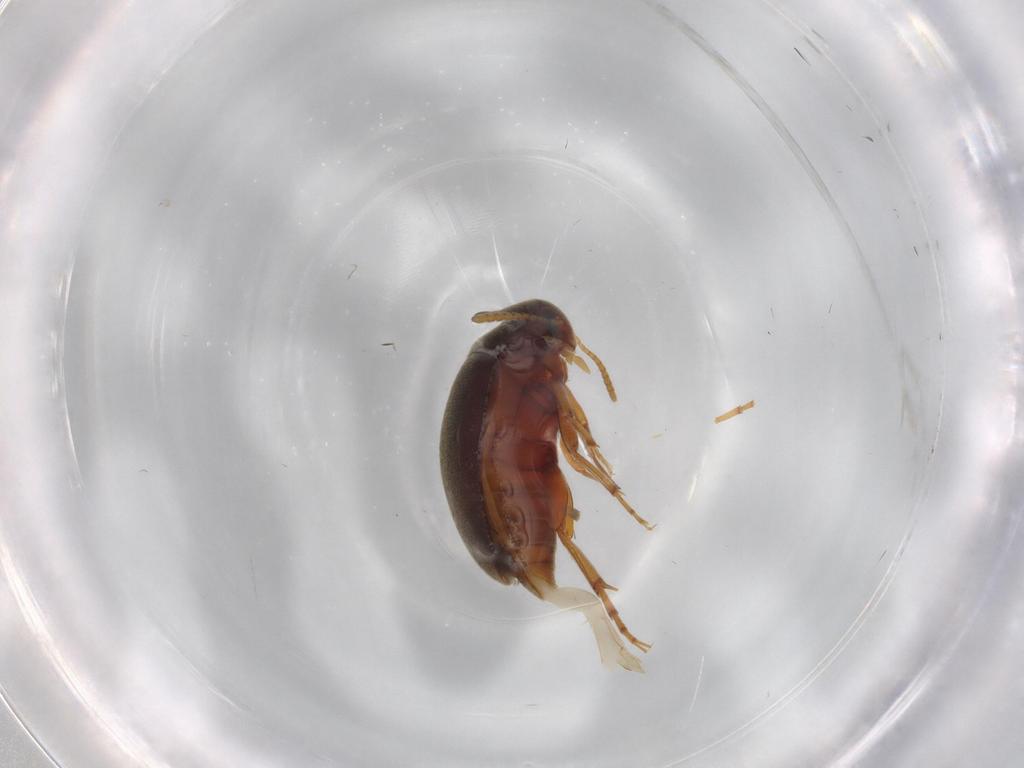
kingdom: Animalia
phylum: Arthropoda
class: Insecta
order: Coleoptera
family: Scraptiidae
